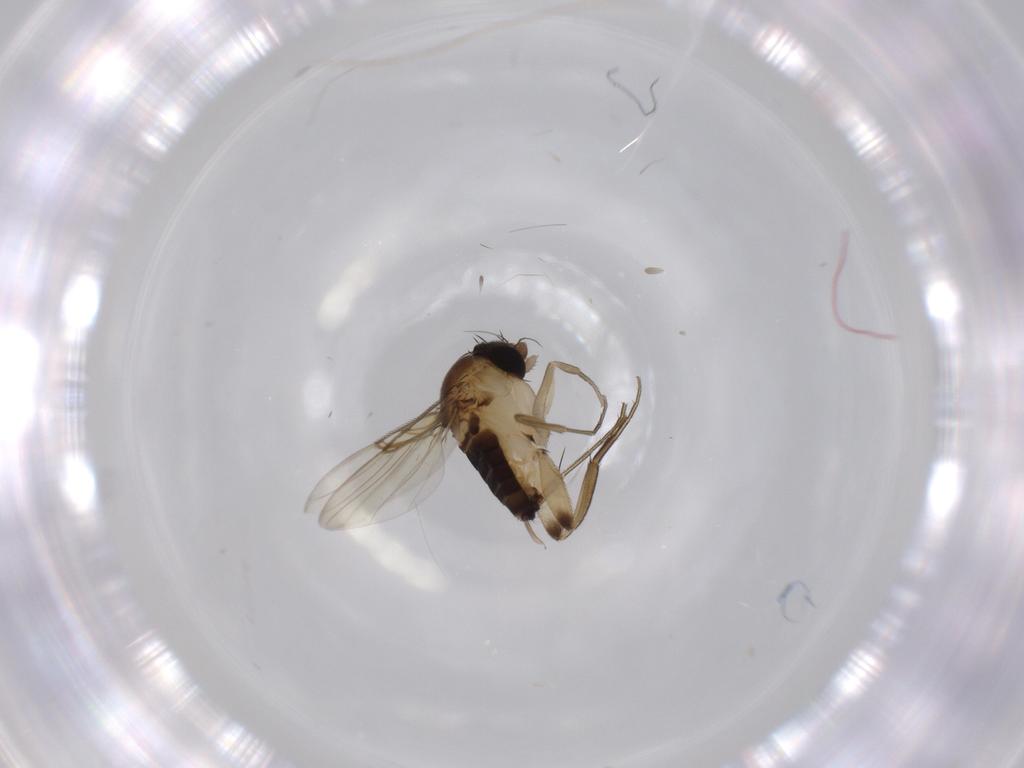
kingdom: Animalia
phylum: Arthropoda
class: Insecta
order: Diptera
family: Phoridae
